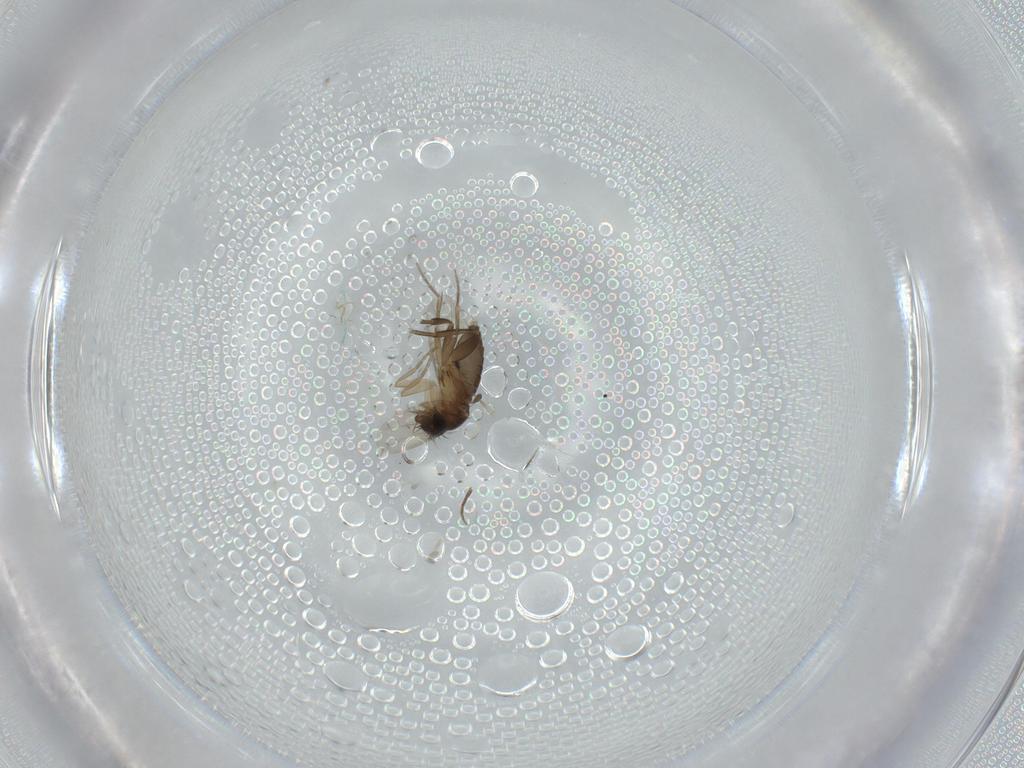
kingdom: Animalia
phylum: Arthropoda
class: Insecta
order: Diptera
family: Phoridae
